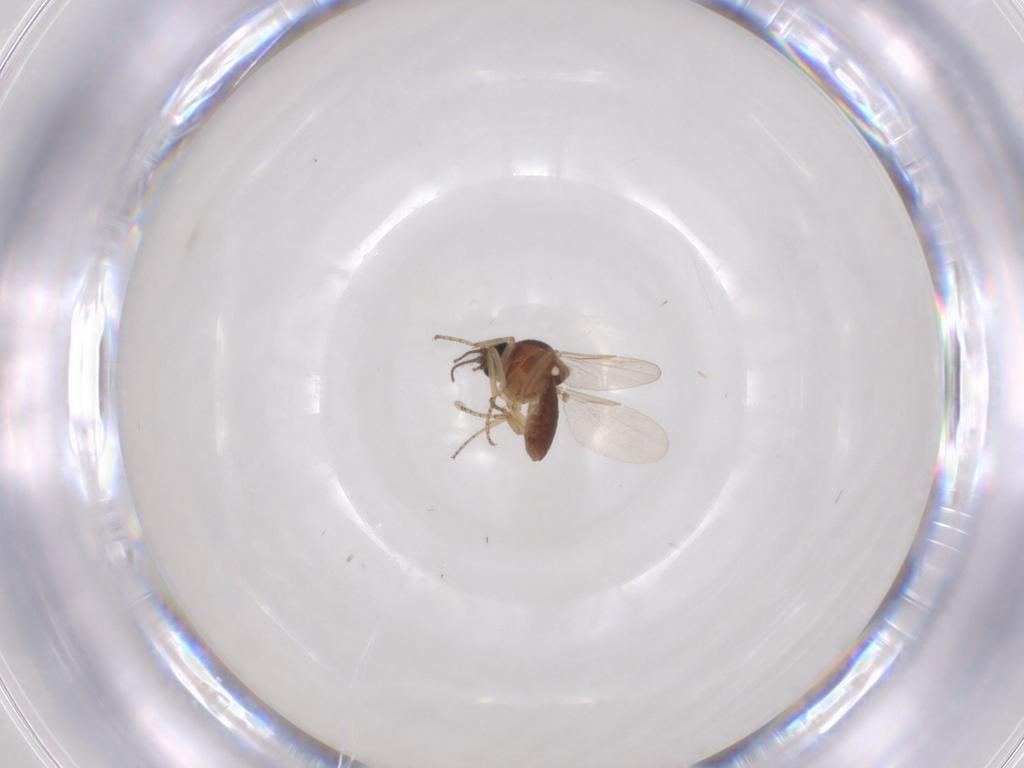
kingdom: Animalia
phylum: Arthropoda
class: Insecta
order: Diptera
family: Ceratopogonidae
